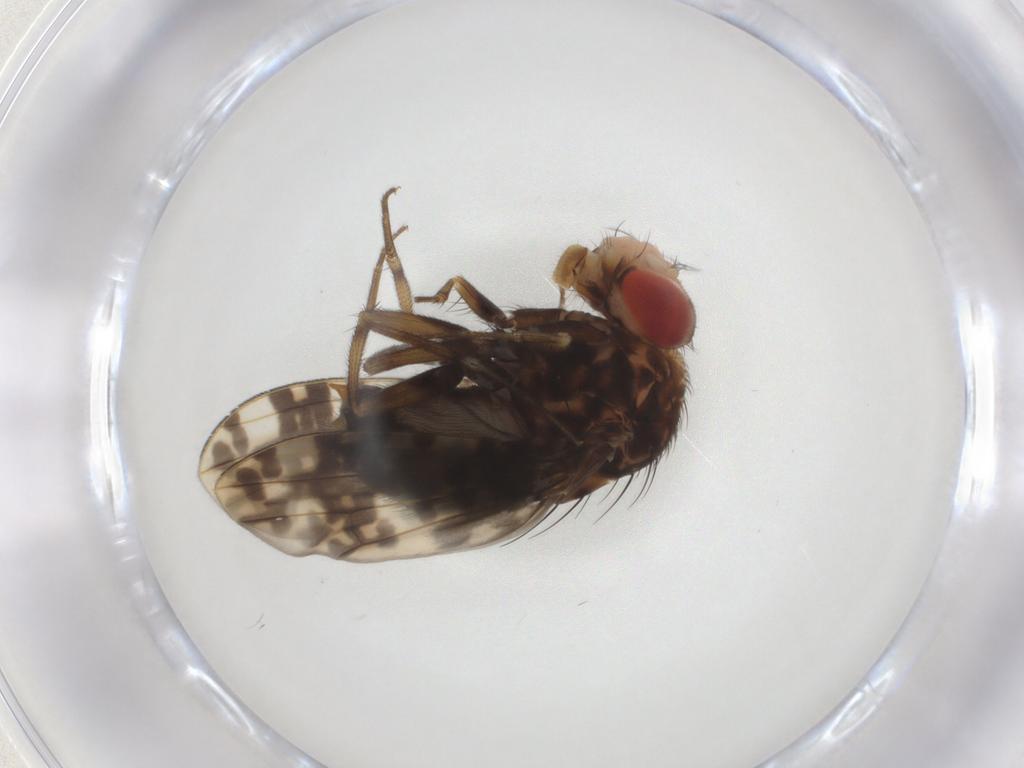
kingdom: Animalia
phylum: Arthropoda
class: Insecta
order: Diptera
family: Drosophilidae
